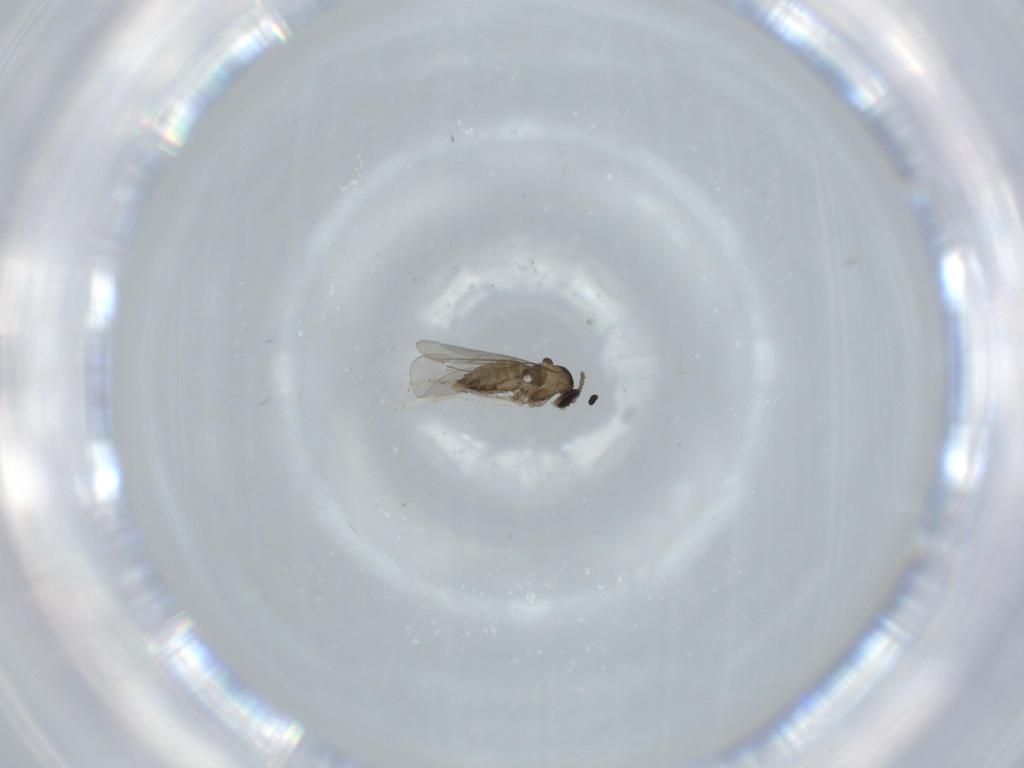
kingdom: Animalia
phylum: Arthropoda
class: Insecta
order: Diptera
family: Cecidomyiidae
